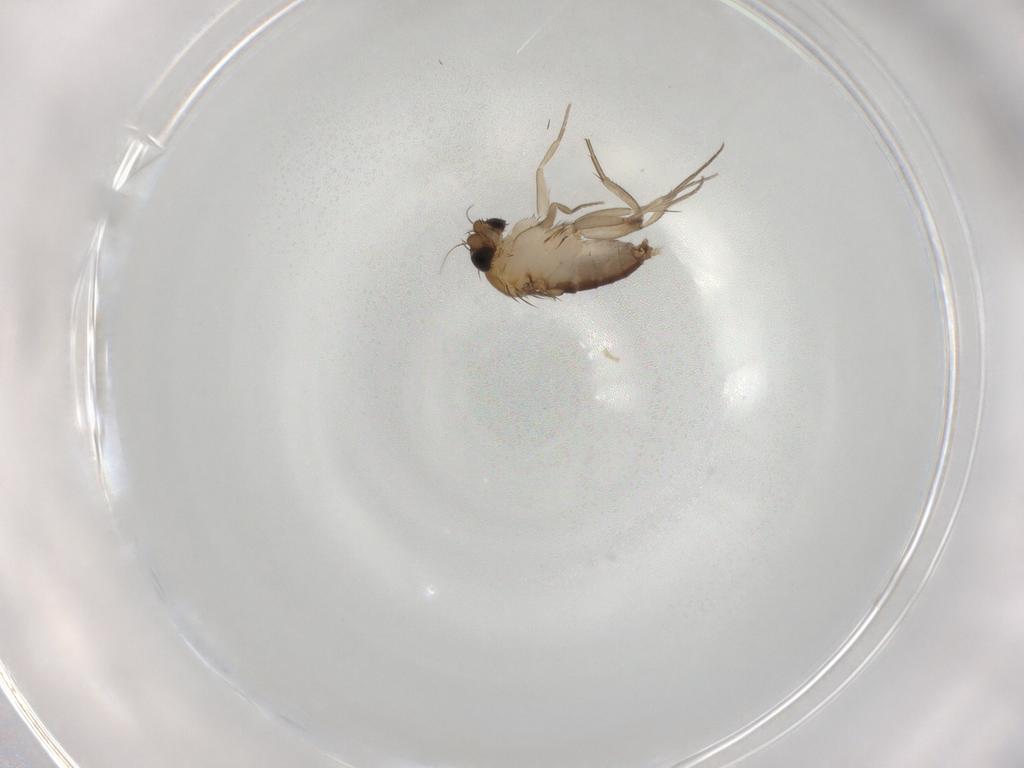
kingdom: Animalia
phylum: Arthropoda
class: Insecta
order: Diptera
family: Phoridae
